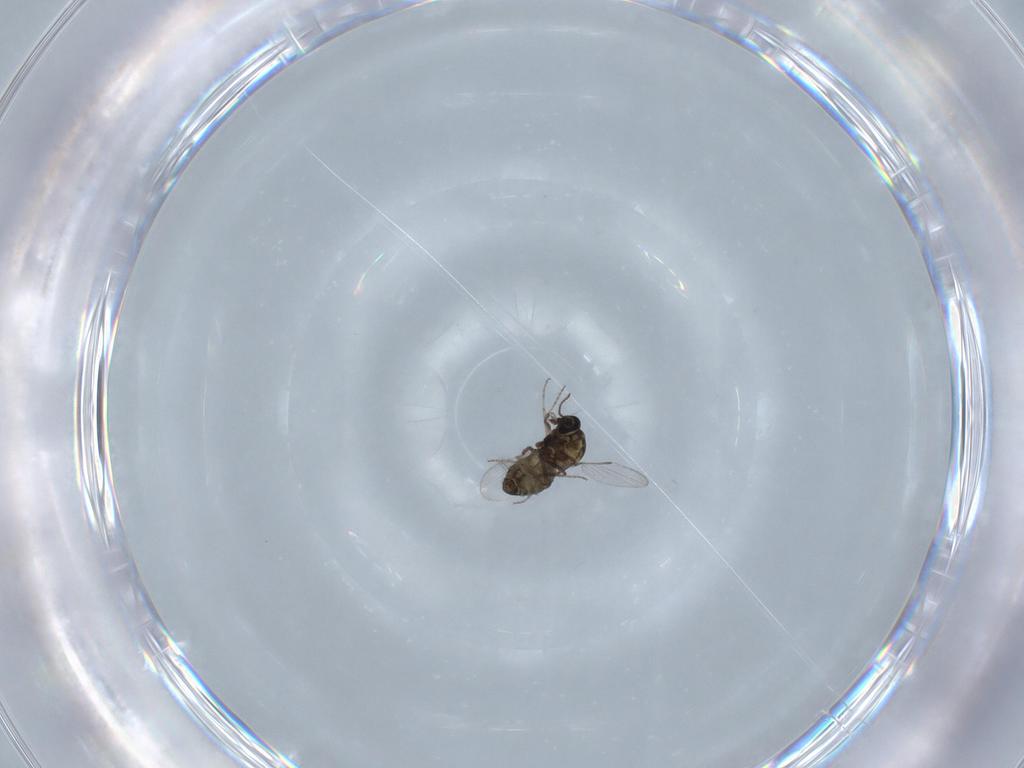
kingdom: Animalia
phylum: Arthropoda
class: Insecta
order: Diptera
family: Ceratopogonidae
